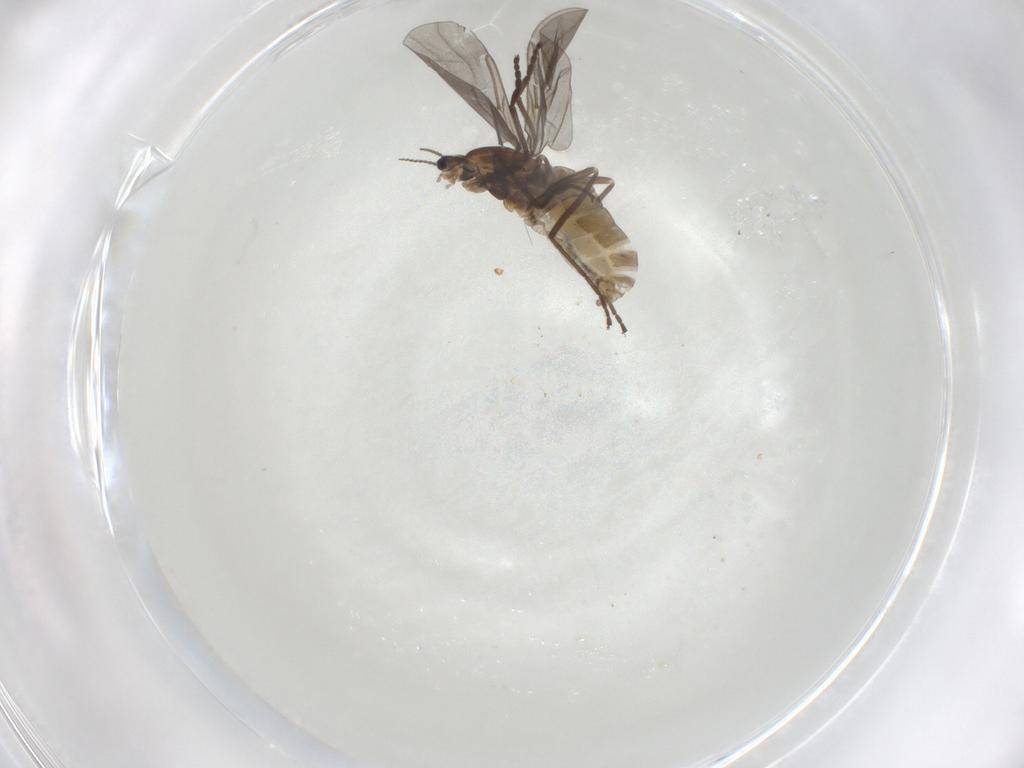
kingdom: Animalia
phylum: Arthropoda
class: Insecta
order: Diptera
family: Cecidomyiidae
